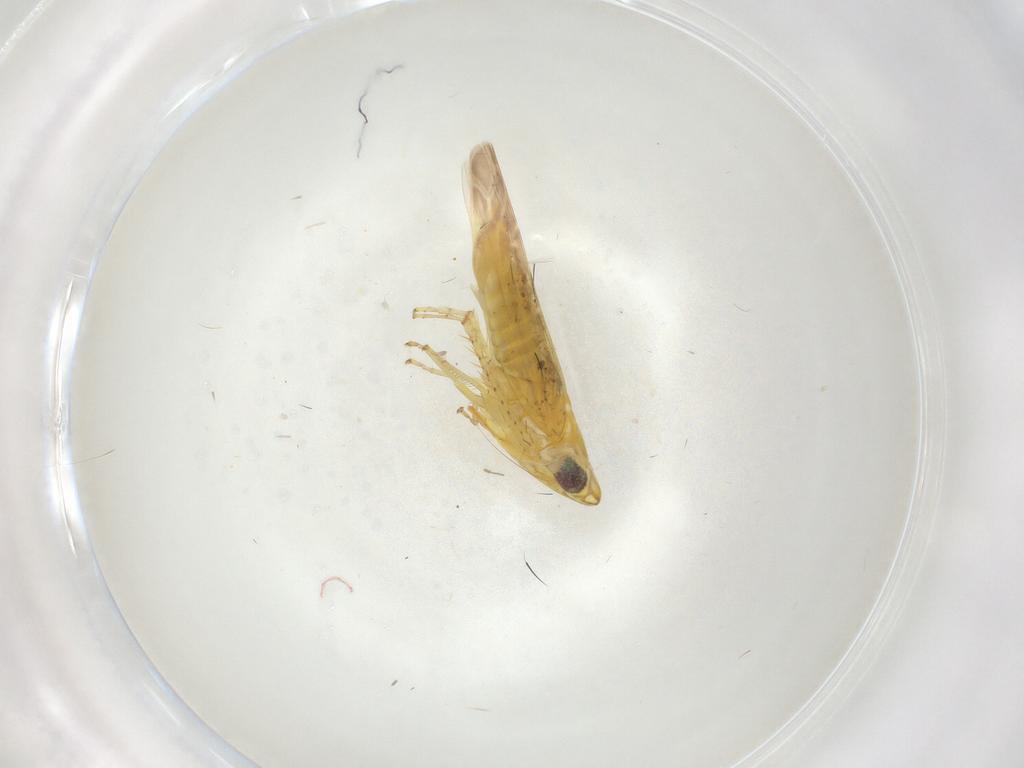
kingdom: Animalia
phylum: Arthropoda
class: Insecta
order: Hemiptera
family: Cicadellidae
